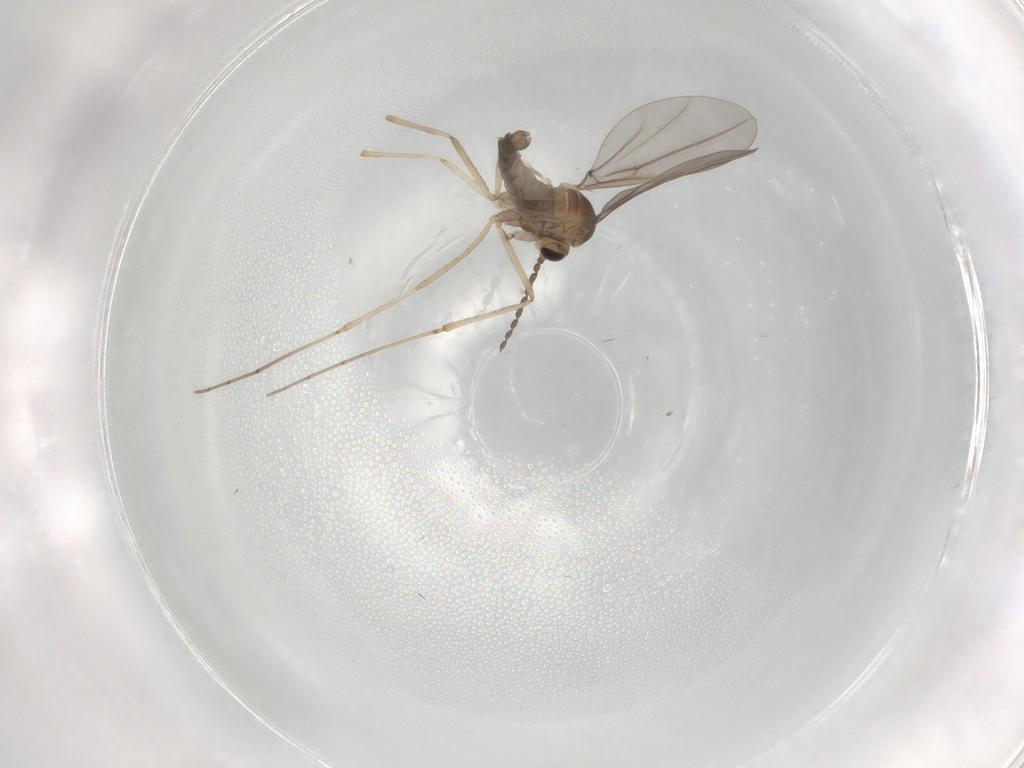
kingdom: Animalia
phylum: Arthropoda
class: Insecta
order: Diptera
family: Cecidomyiidae
